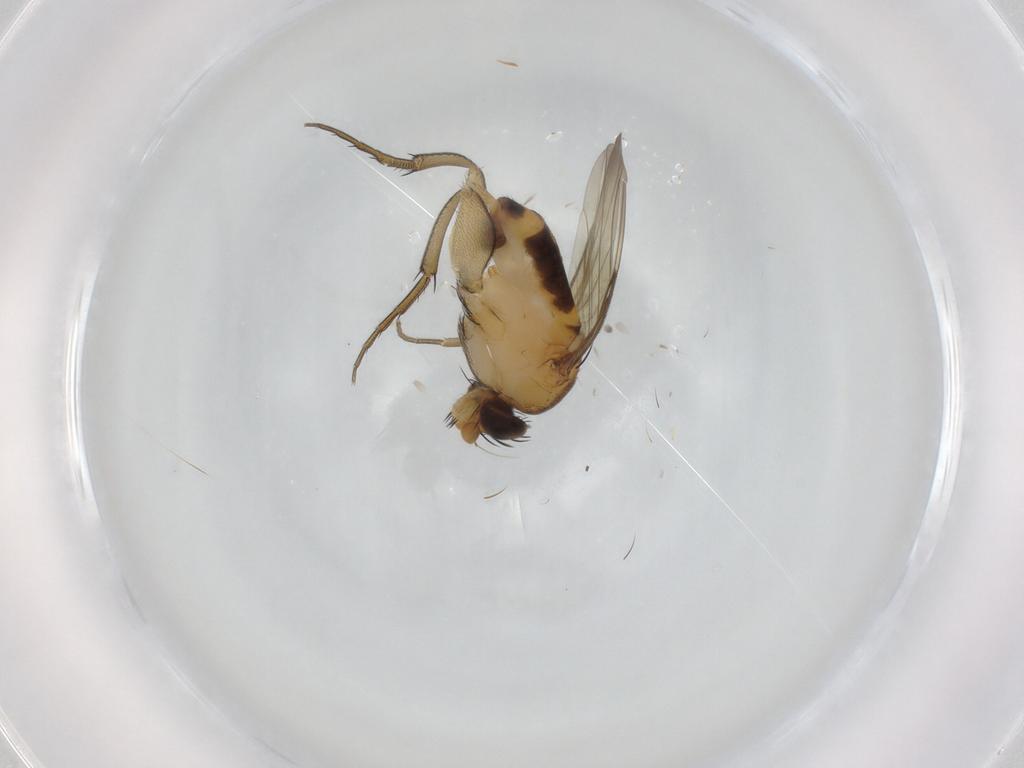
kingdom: Animalia
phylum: Arthropoda
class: Insecta
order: Diptera
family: Phoridae
